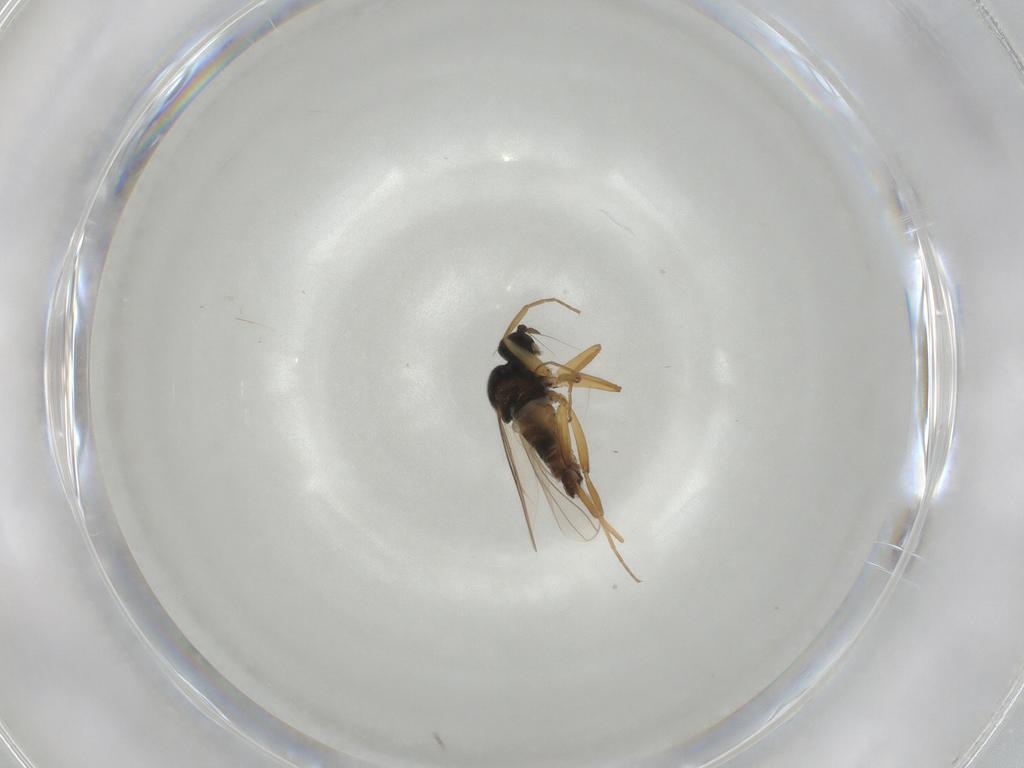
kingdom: Animalia
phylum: Arthropoda
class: Insecta
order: Diptera
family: Hybotidae
